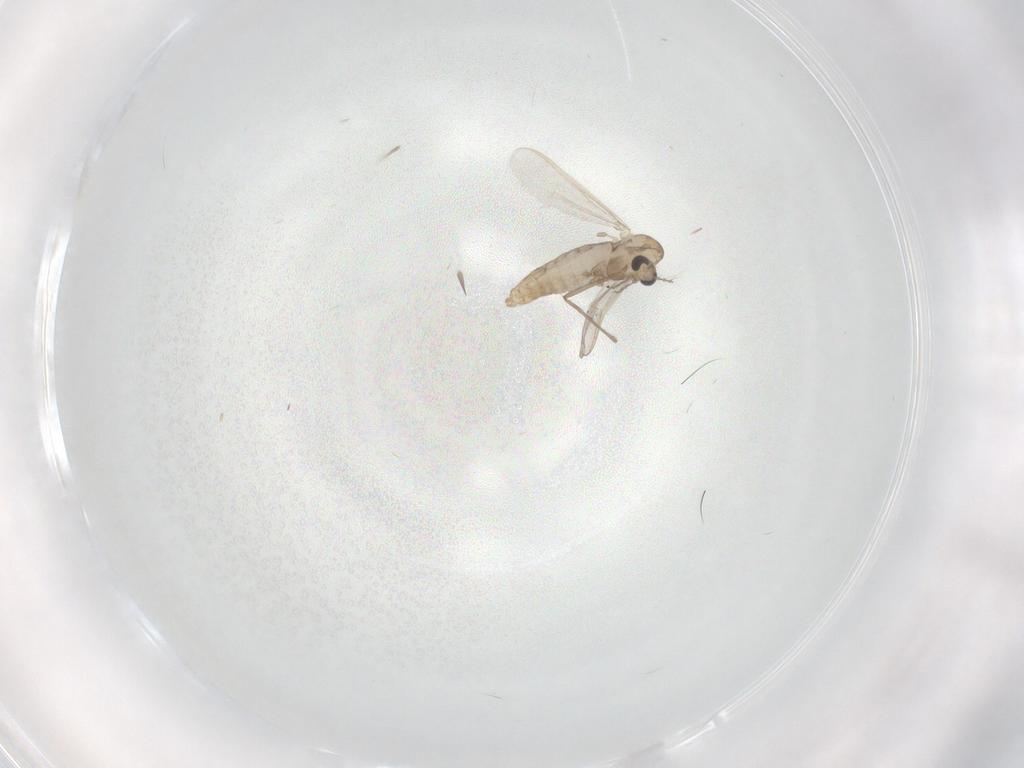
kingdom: Animalia
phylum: Arthropoda
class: Insecta
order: Diptera
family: Chironomidae
